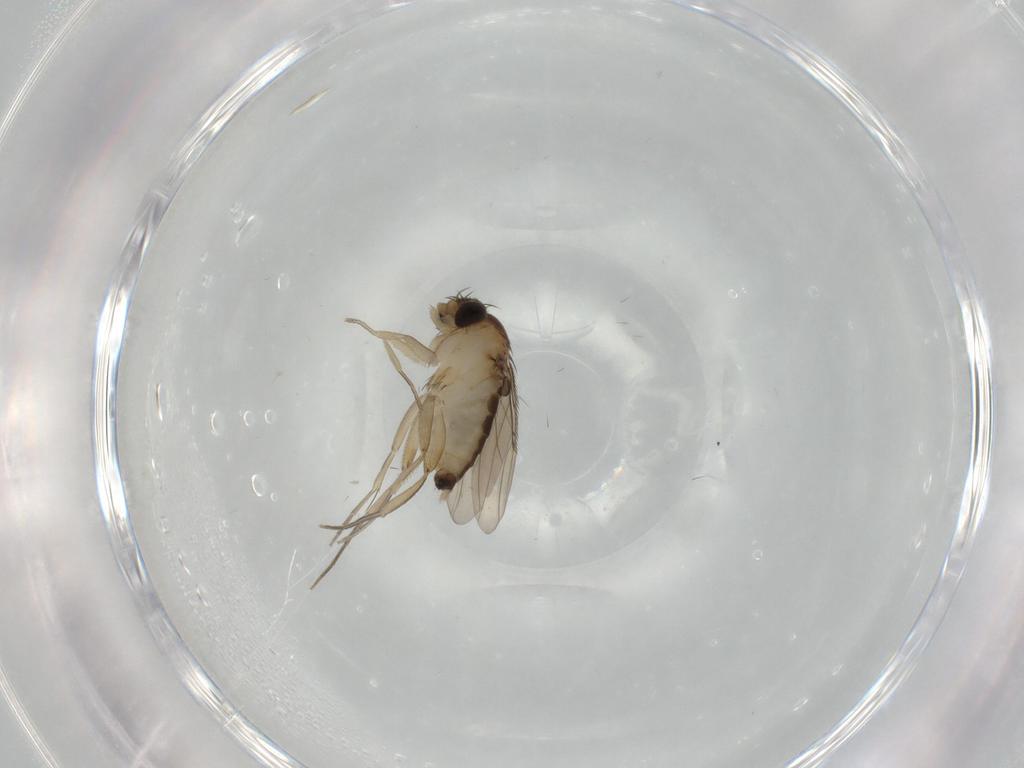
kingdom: Animalia
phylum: Arthropoda
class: Insecta
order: Diptera
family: Phoridae
